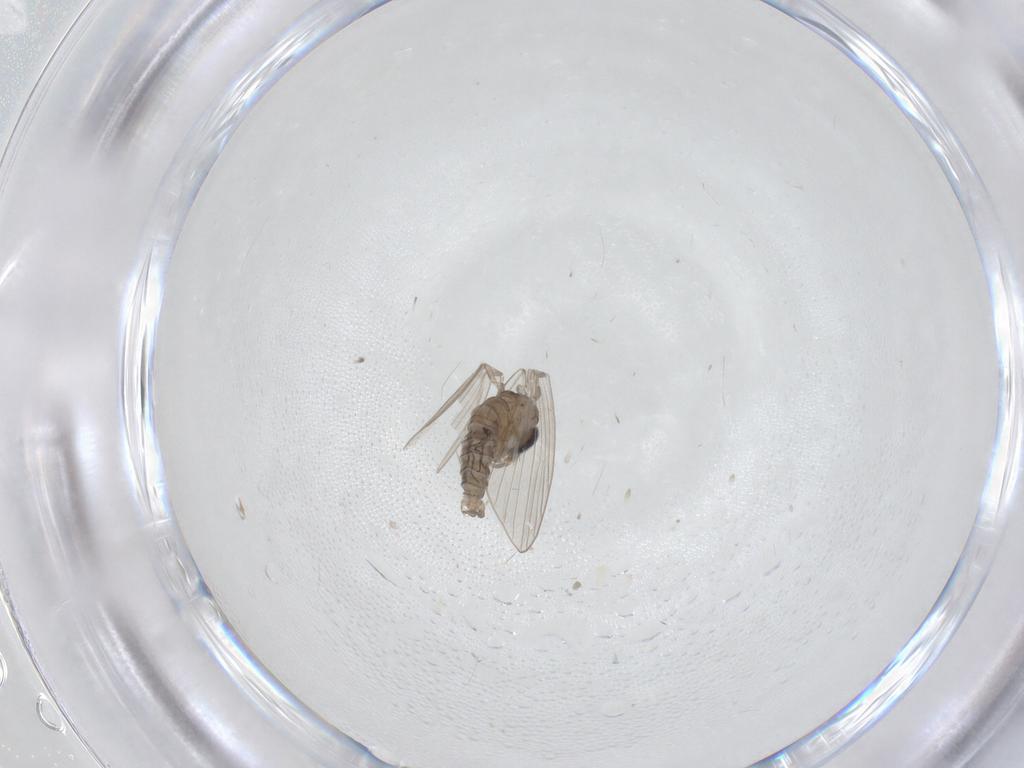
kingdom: Animalia
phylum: Arthropoda
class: Insecta
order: Diptera
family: Psychodidae
